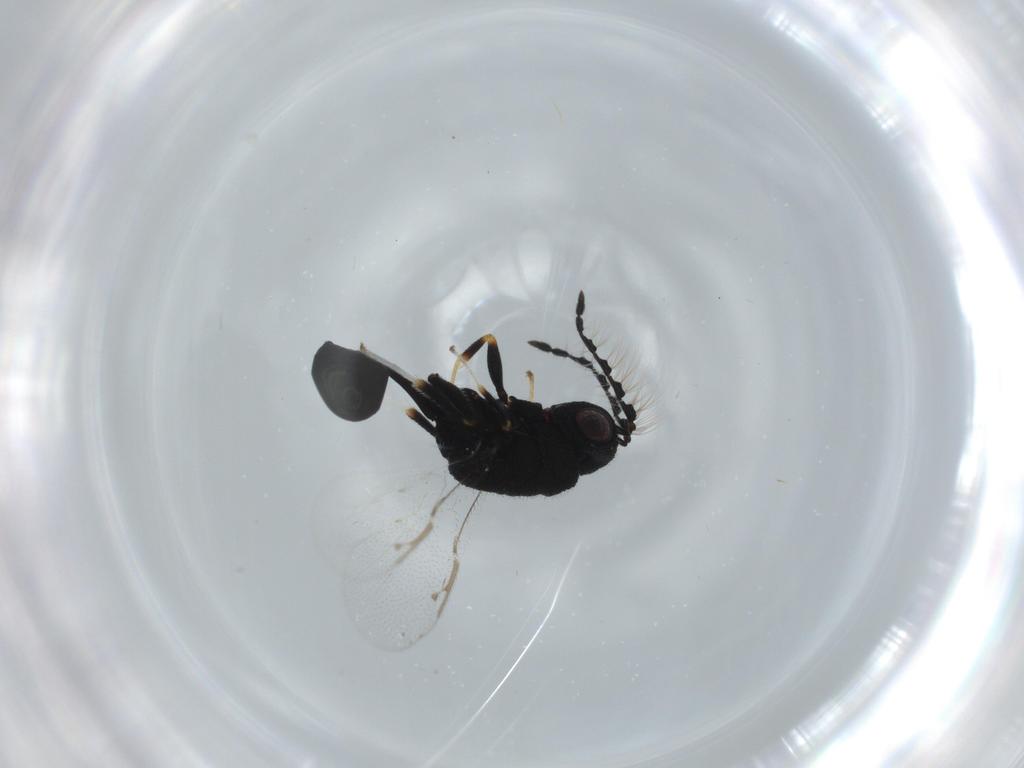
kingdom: Animalia
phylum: Arthropoda
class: Insecta
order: Hymenoptera
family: Eurytomidae
